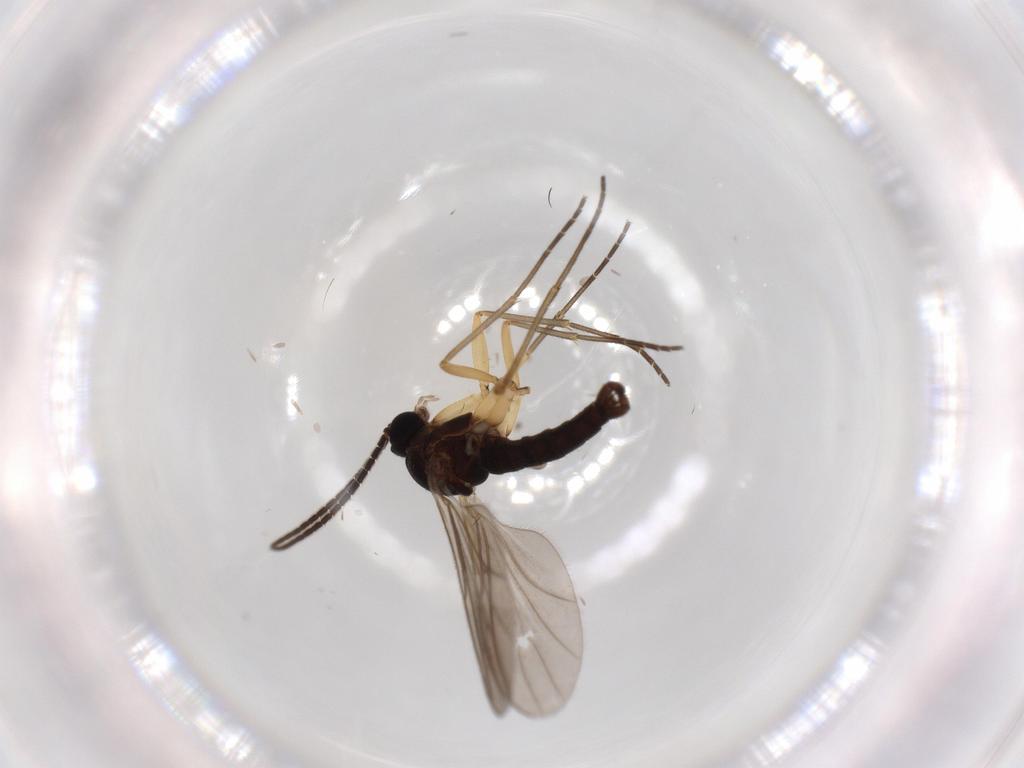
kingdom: Animalia
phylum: Arthropoda
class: Insecta
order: Diptera
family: Sciaridae
